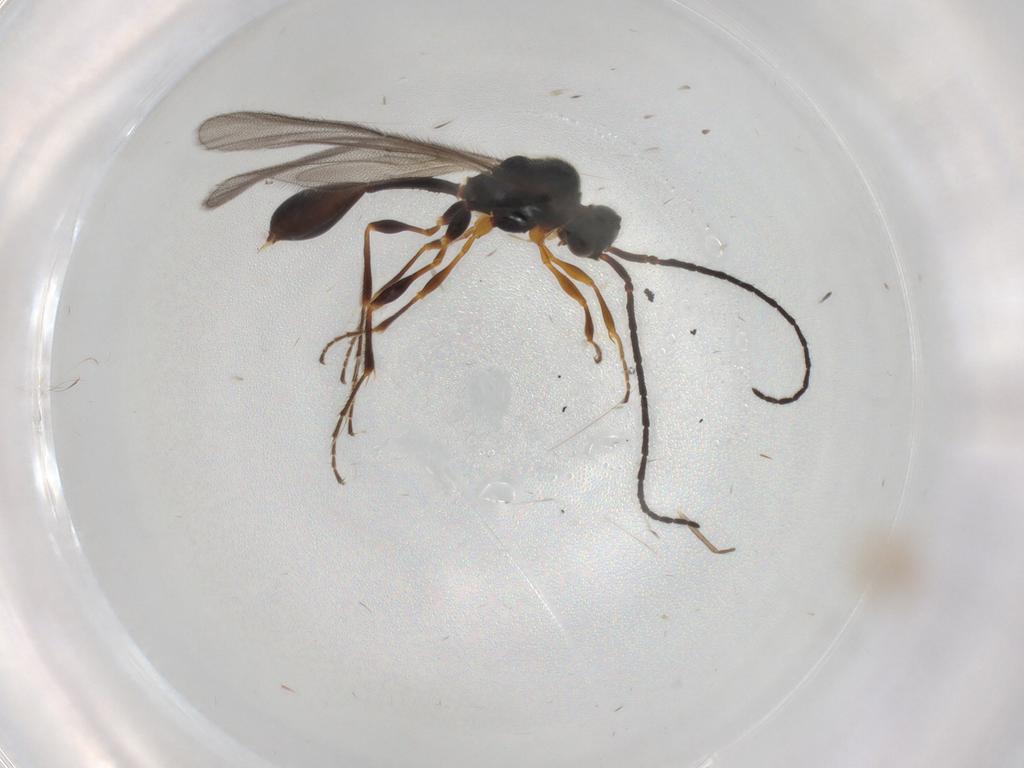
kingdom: Animalia
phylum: Arthropoda
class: Insecta
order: Hymenoptera
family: Diapriidae
